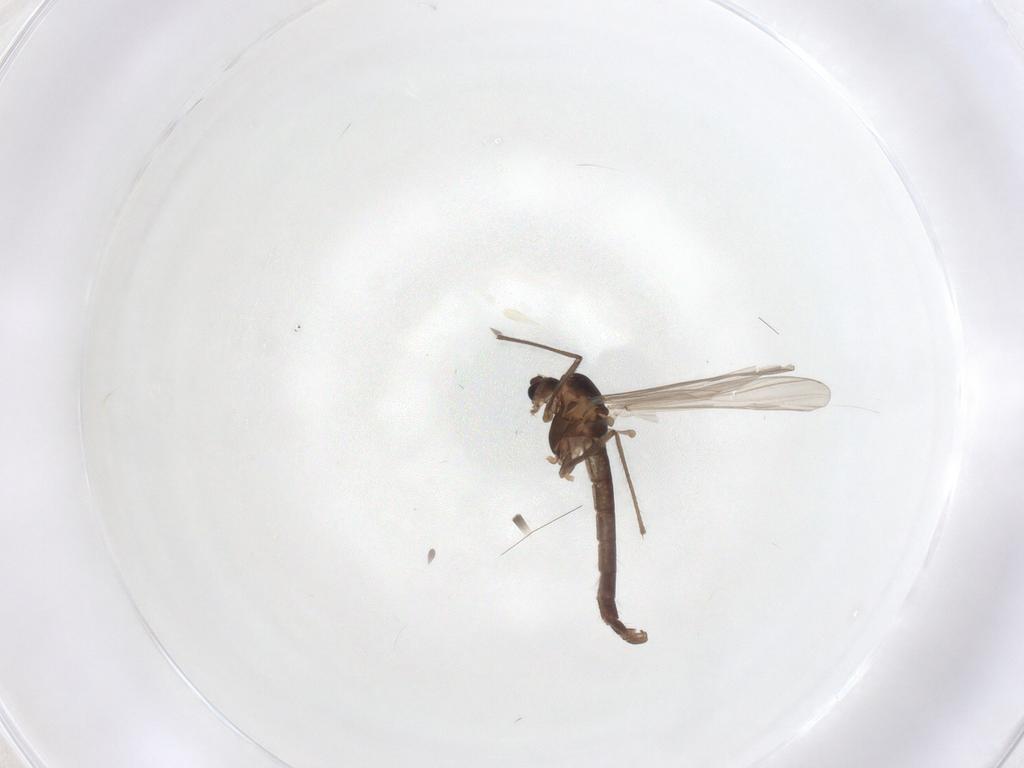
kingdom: Animalia
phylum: Arthropoda
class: Insecta
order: Diptera
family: Chironomidae
